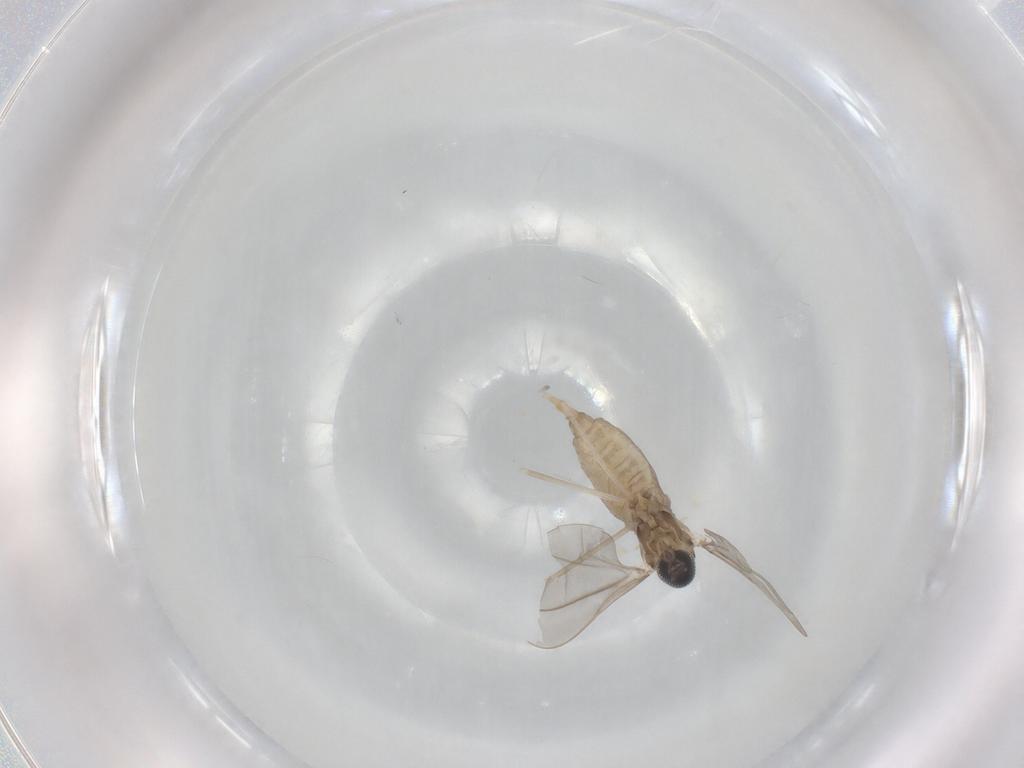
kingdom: Animalia
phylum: Arthropoda
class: Insecta
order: Diptera
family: Cecidomyiidae
